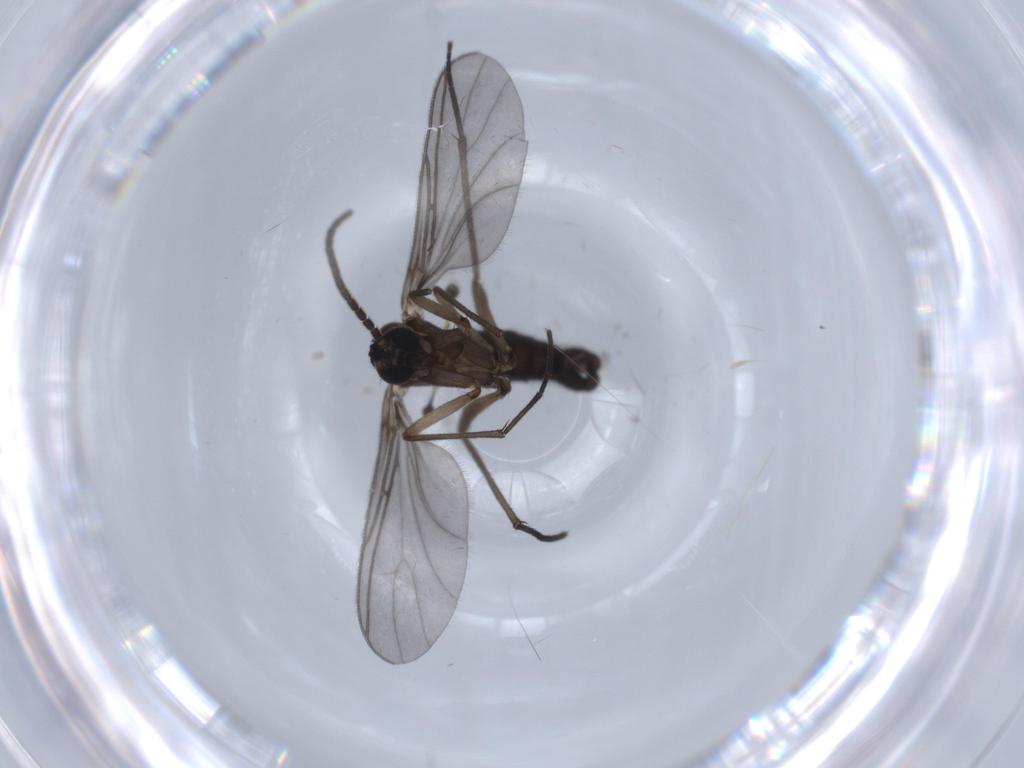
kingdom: Animalia
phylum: Arthropoda
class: Insecta
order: Diptera
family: Sciaridae
